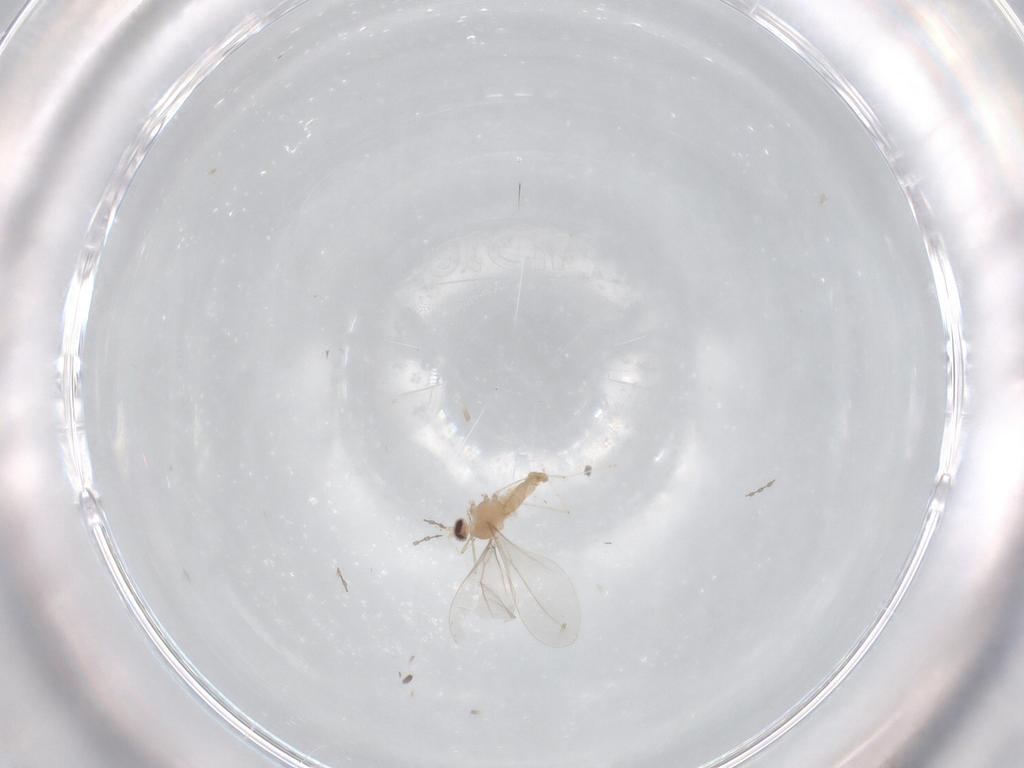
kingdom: Animalia
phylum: Arthropoda
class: Insecta
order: Diptera
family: Cecidomyiidae
